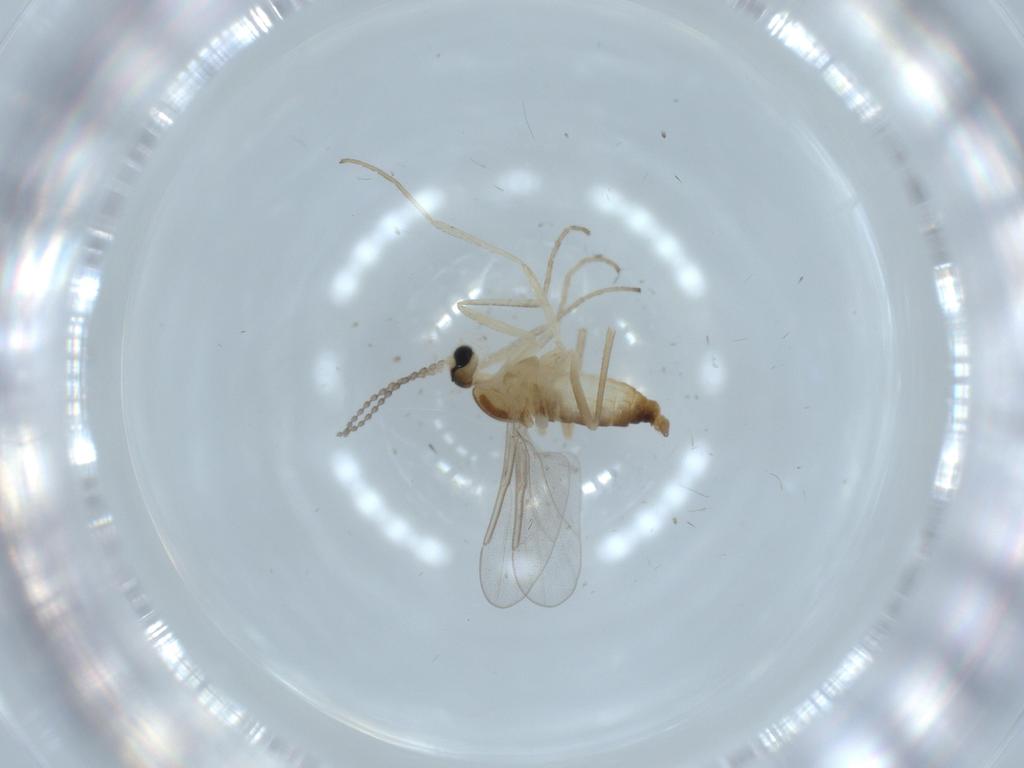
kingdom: Animalia
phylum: Arthropoda
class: Insecta
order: Diptera
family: Cecidomyiidae
